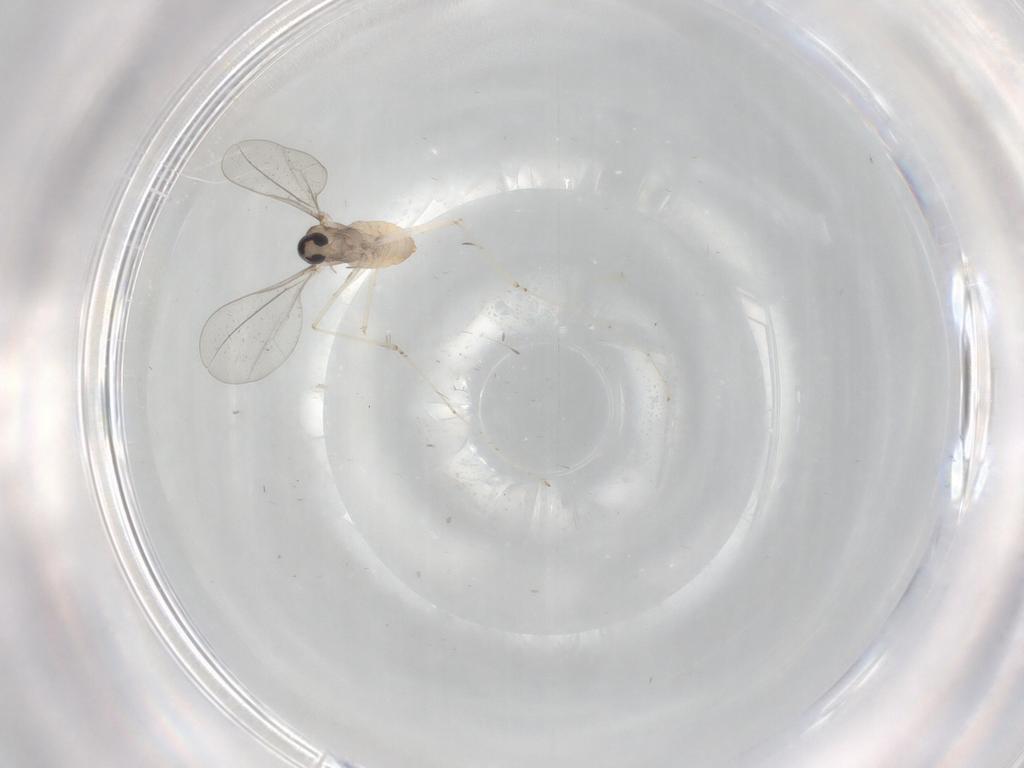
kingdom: Animalia
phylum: Arthropoda
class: Insecta
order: Diptera
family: Cecidomyiidae
